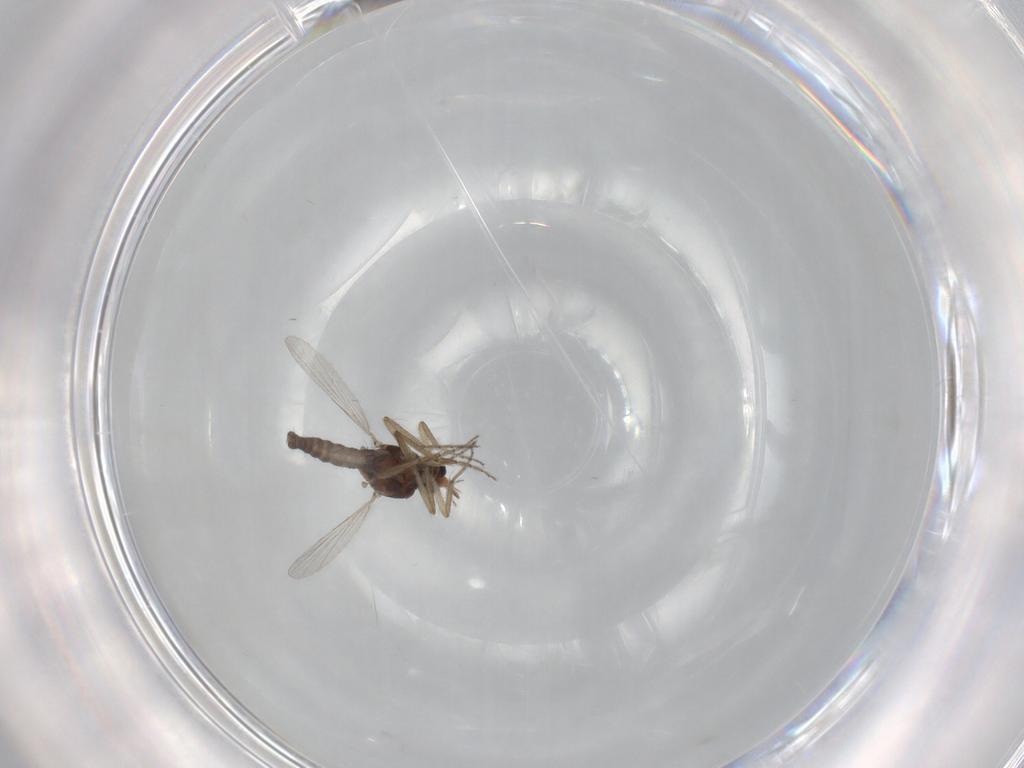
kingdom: Animalia
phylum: Arthropoda
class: Insecta
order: Diptera
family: Ceratopogonidae
